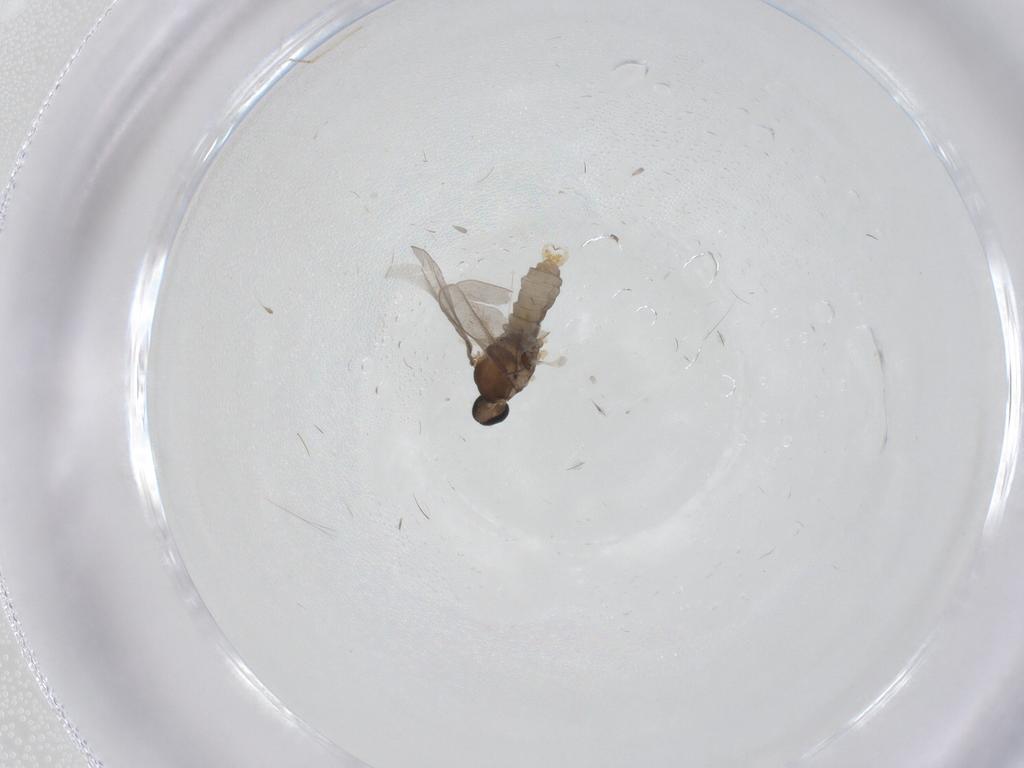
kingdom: Animalia
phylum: Arthropoda
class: Insecta
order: Diptera
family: Cecidomyiidae
